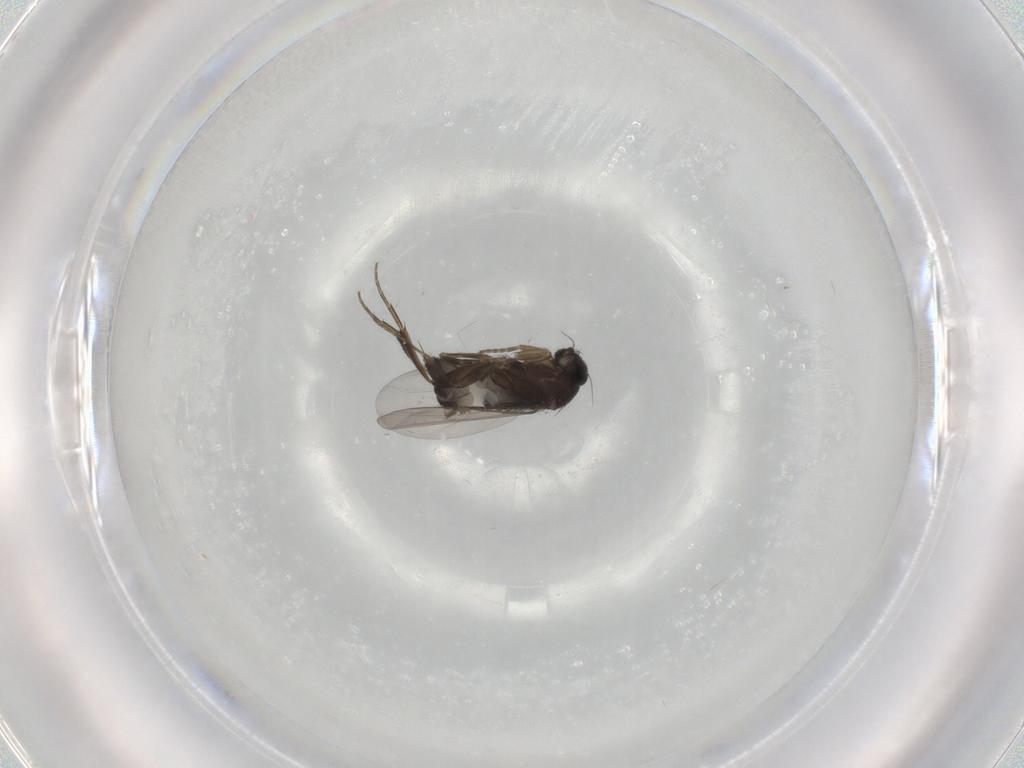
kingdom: Animalia
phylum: Arthropoda
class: Insecta
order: Diptera
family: Phoridae
